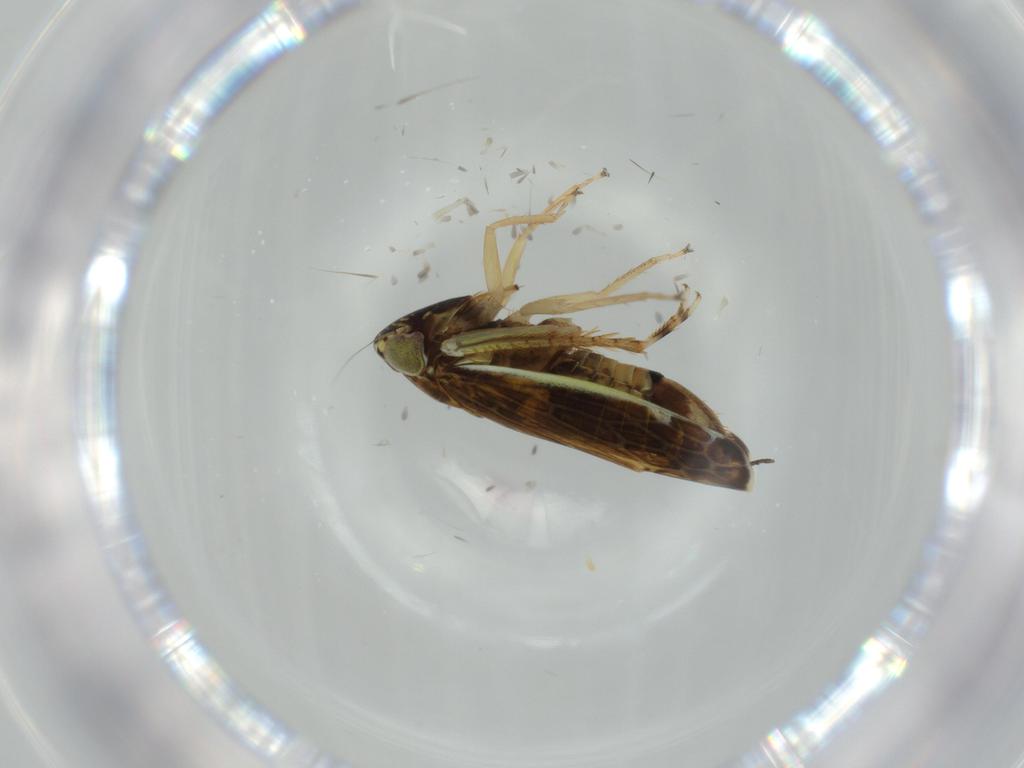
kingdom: Animalia
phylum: Arthropoda
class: Insecta
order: Hemiptera
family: Cicadellidae
